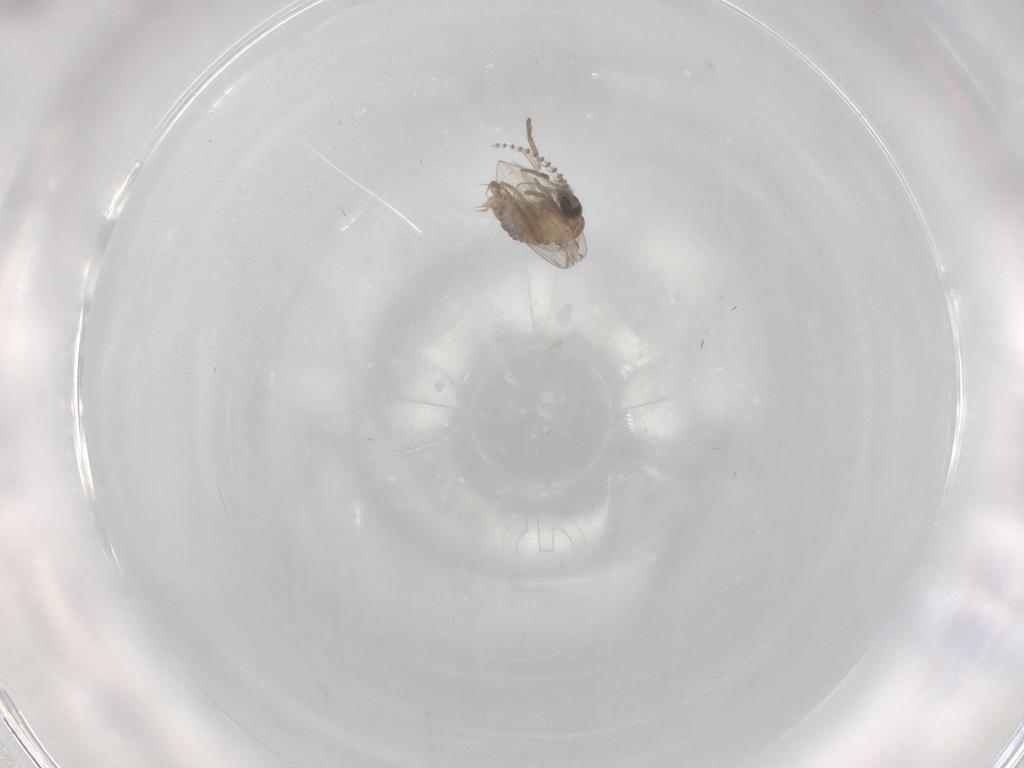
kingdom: Animalia
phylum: Arthropoda
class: Insecta
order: Diptera
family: Psychodidae
